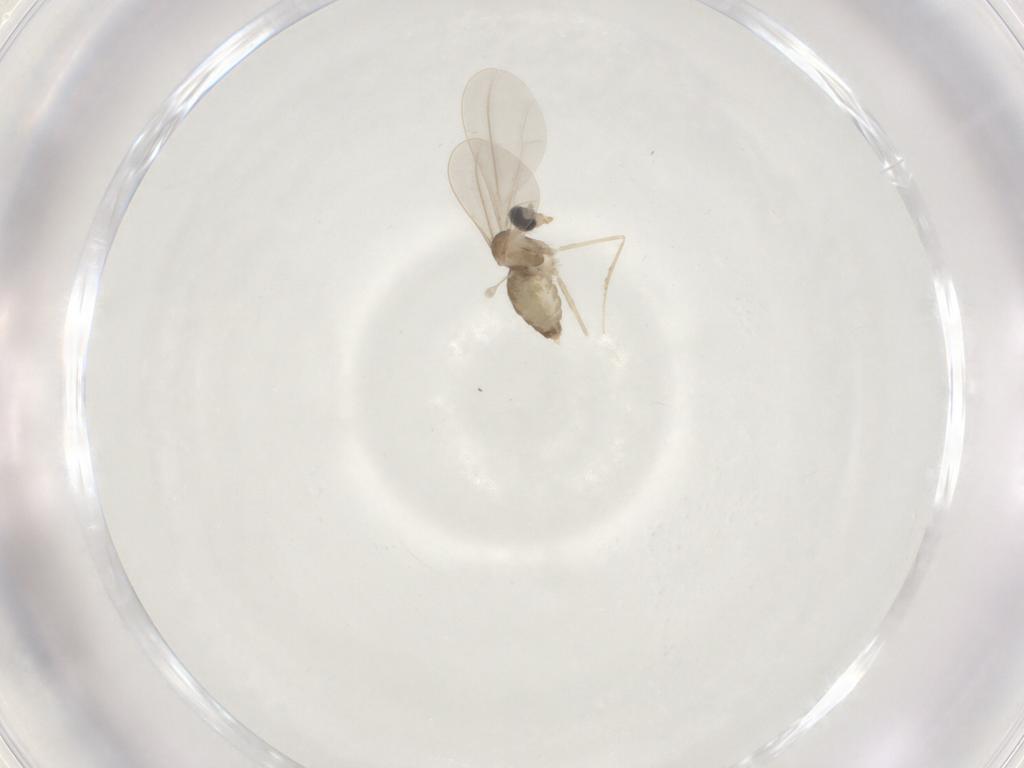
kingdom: Animalia
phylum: Arthropoda
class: Insecta
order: Diptera
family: Cecidomyiidae
